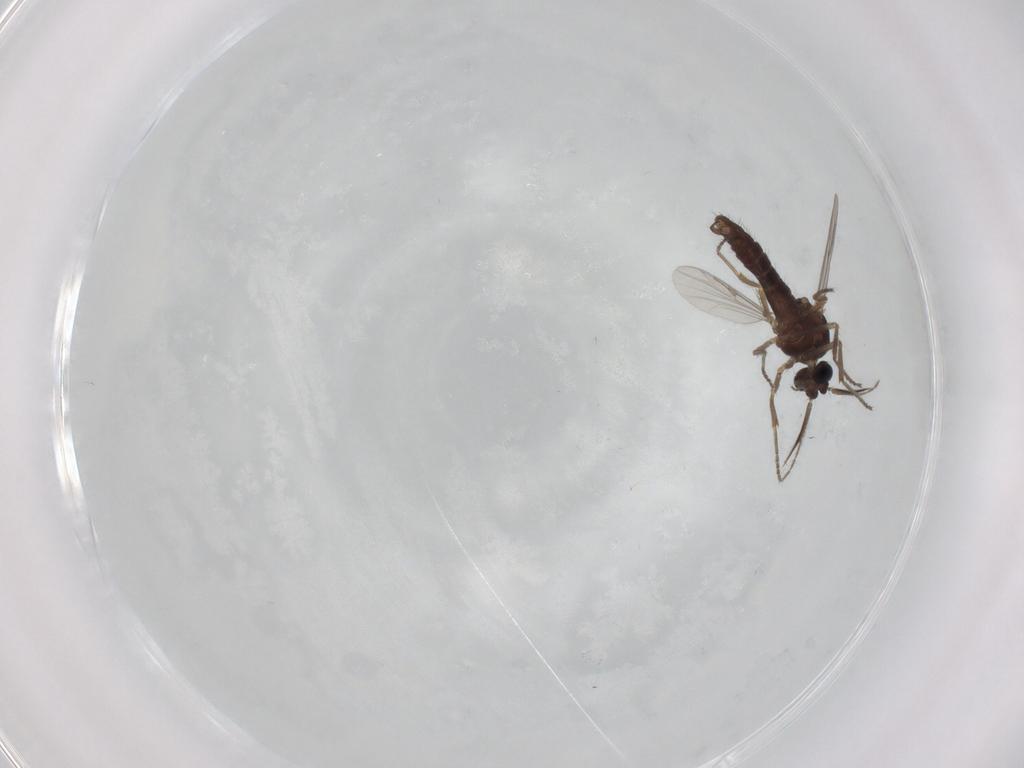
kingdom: Animalia
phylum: Arthropoda
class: Insecta
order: Diptera
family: Ceratopogonidae
